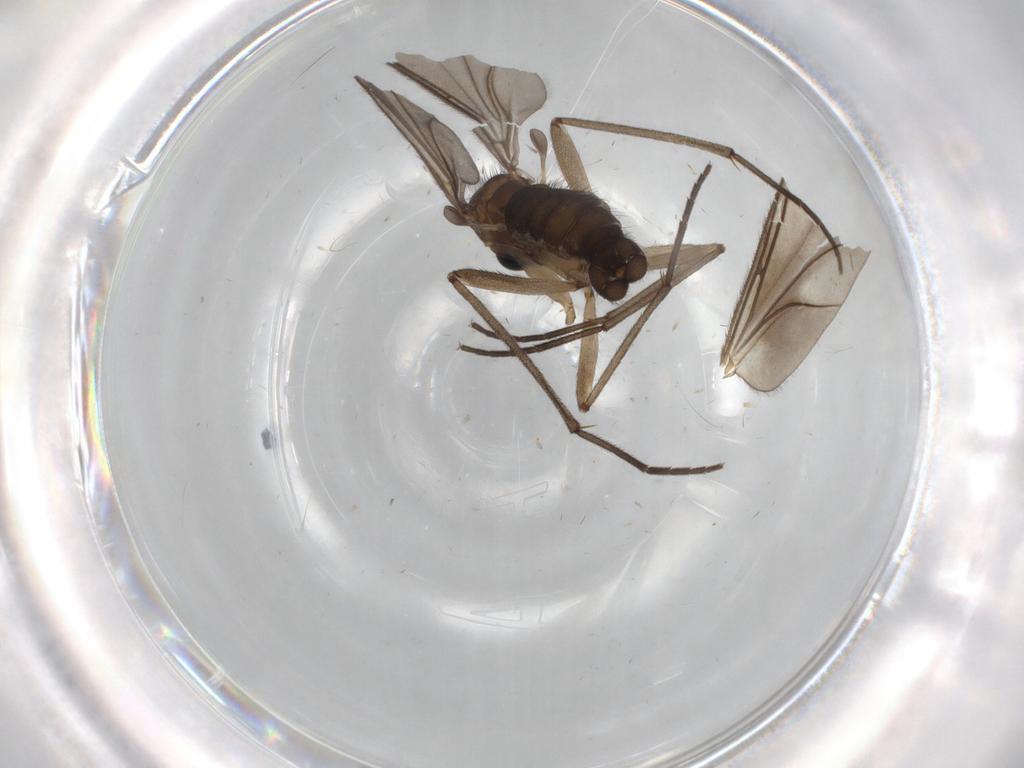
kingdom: Animalia
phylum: Arthropoda
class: Insecta
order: Diptera
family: Sciaridae
